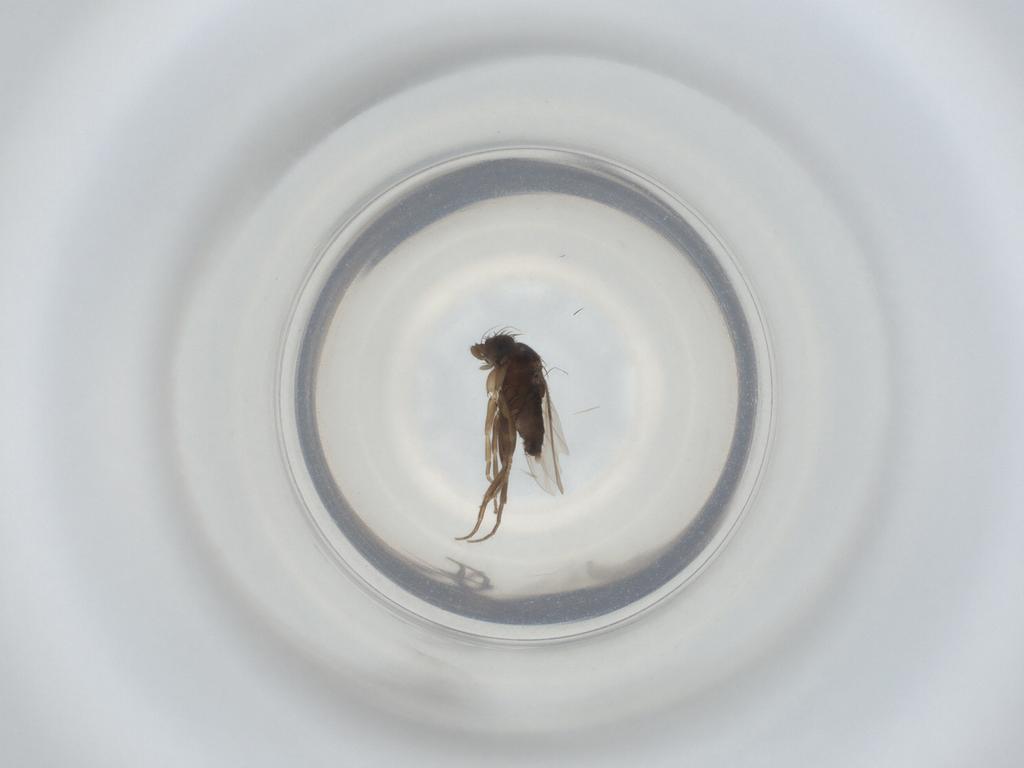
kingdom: Animalia
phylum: Arthropoda
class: Insecta
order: Diptera
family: Phoridae
